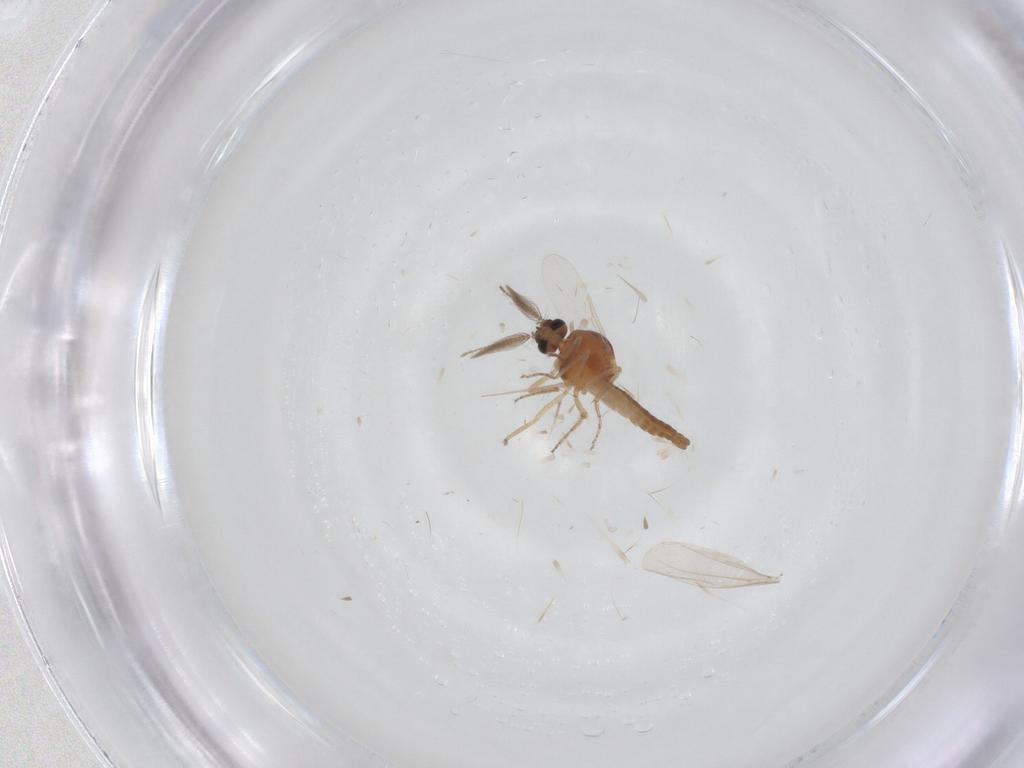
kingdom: Animalia
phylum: Arthropoda
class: Insecta
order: Diptera
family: Ceratopogonidae
